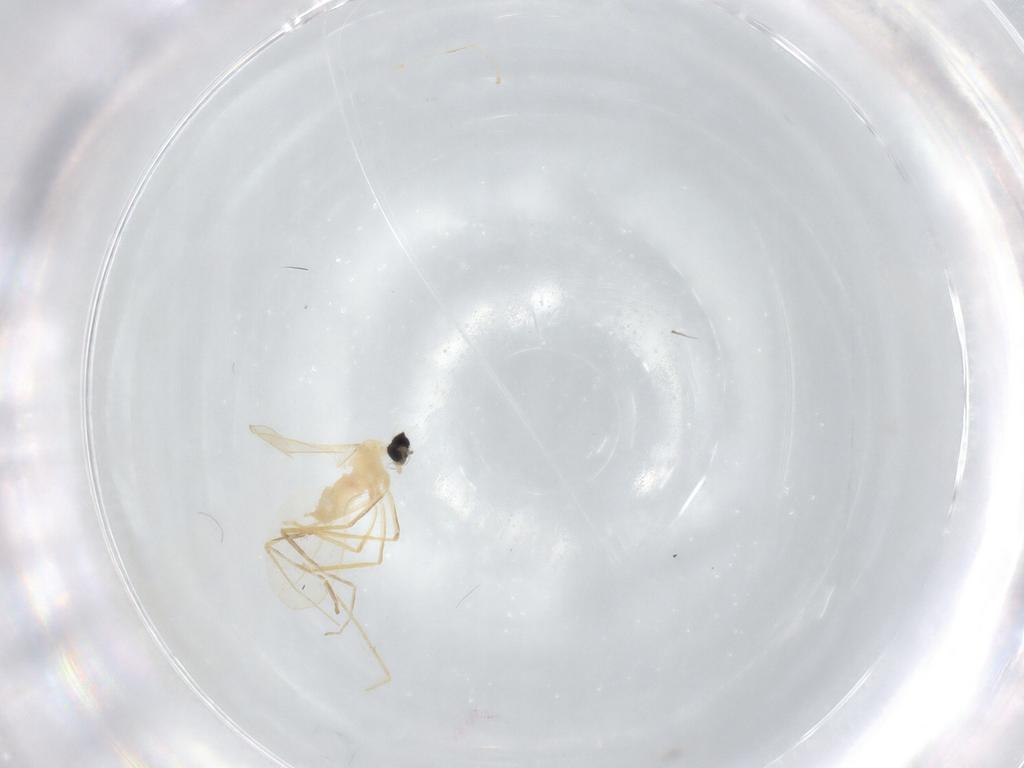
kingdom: Animalia
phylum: Arthropoda
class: Insecta
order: Diptera
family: Cecidomyiidae
